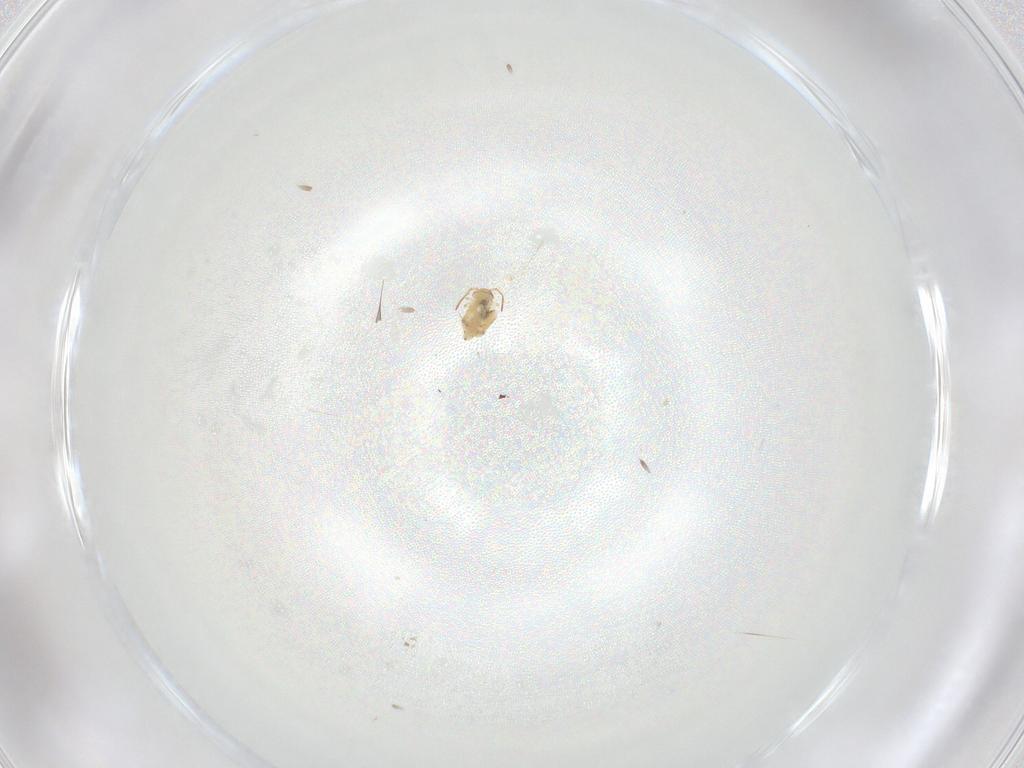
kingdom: Animalia
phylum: Arthropoda
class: Collembola
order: Symphypleona
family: Bourletiellidae
